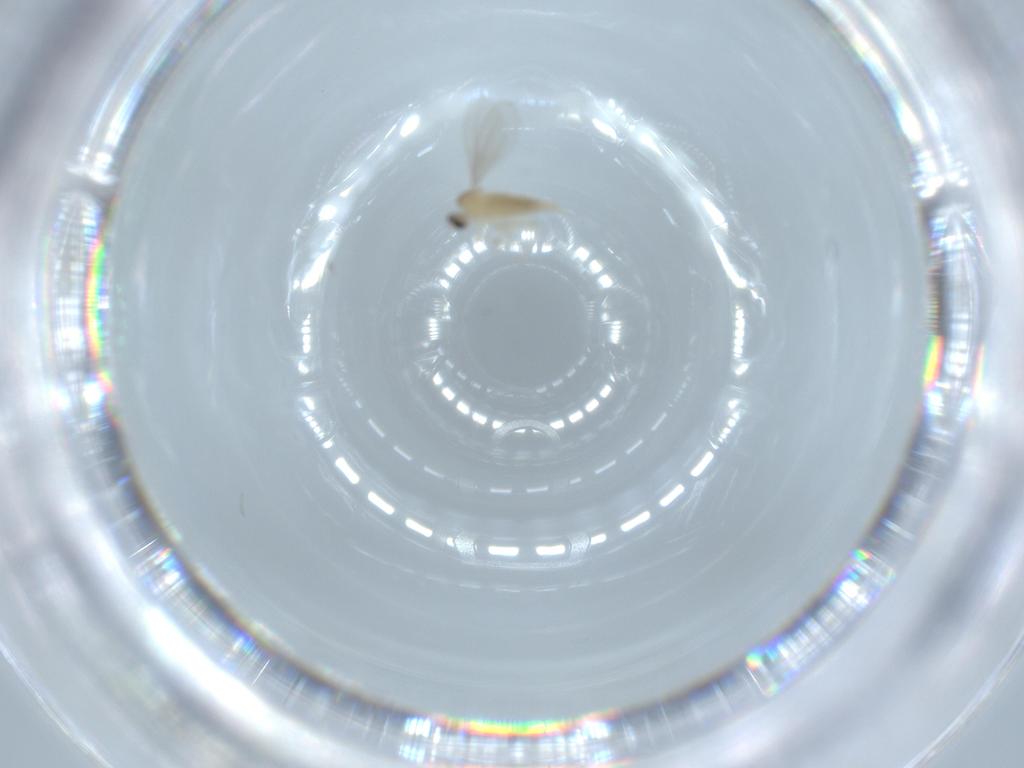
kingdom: Animalia
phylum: Arthropoda
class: Insecta
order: Diptera
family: Cecidomyiidae
